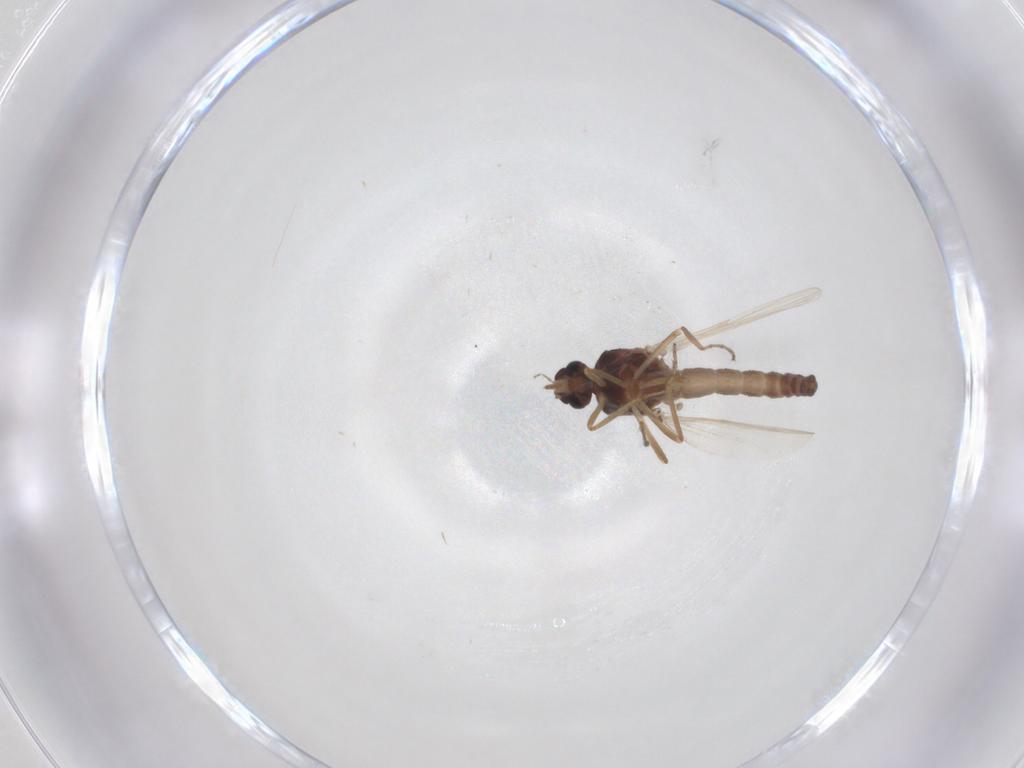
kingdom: Animalia
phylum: Arthropoda
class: Insecta
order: Diptera
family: Ceratopogonidae
